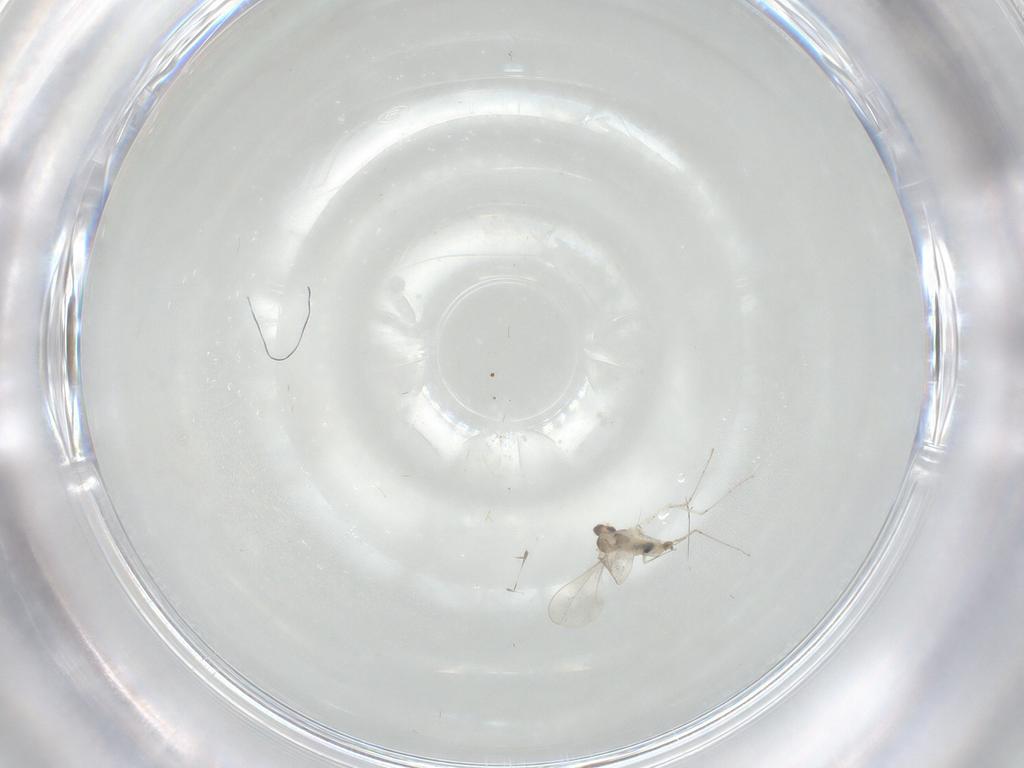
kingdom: Animalia
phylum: Arthropoda
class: Insecta
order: Diptera
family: Cecidomyiidae
